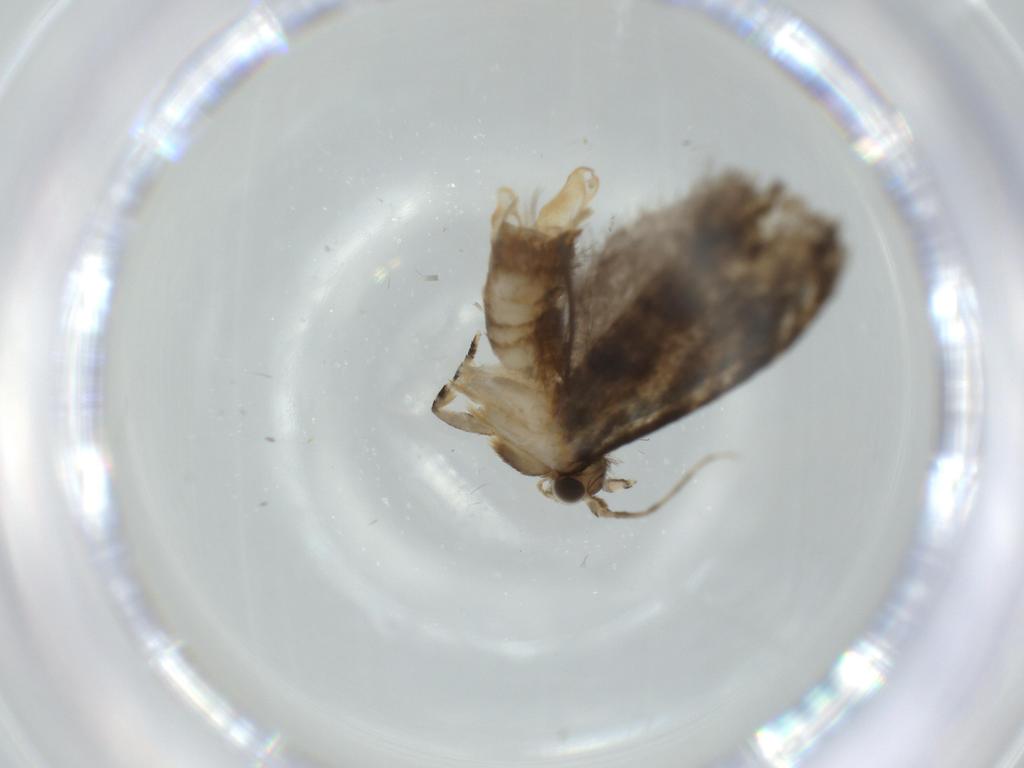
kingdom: Animalia
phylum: Arthropoda
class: Insecta
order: Lepidoptera
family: Tineidae
